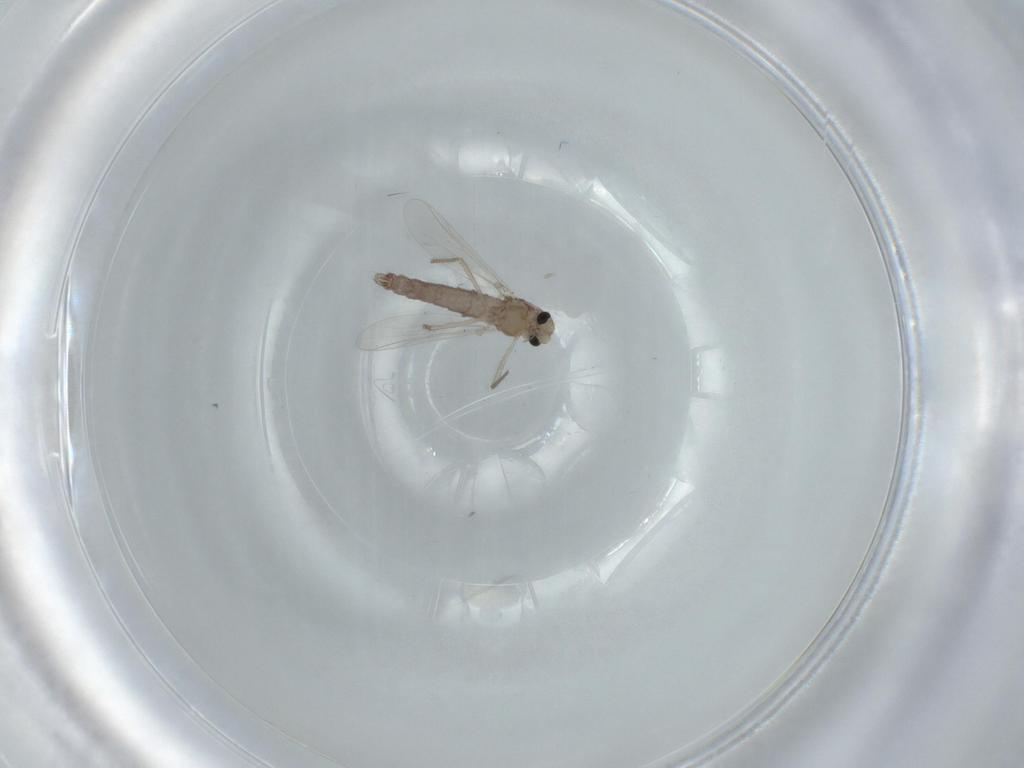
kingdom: Animalia
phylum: Arthropoda
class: Insecta
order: Diptera
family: Chironomidae
